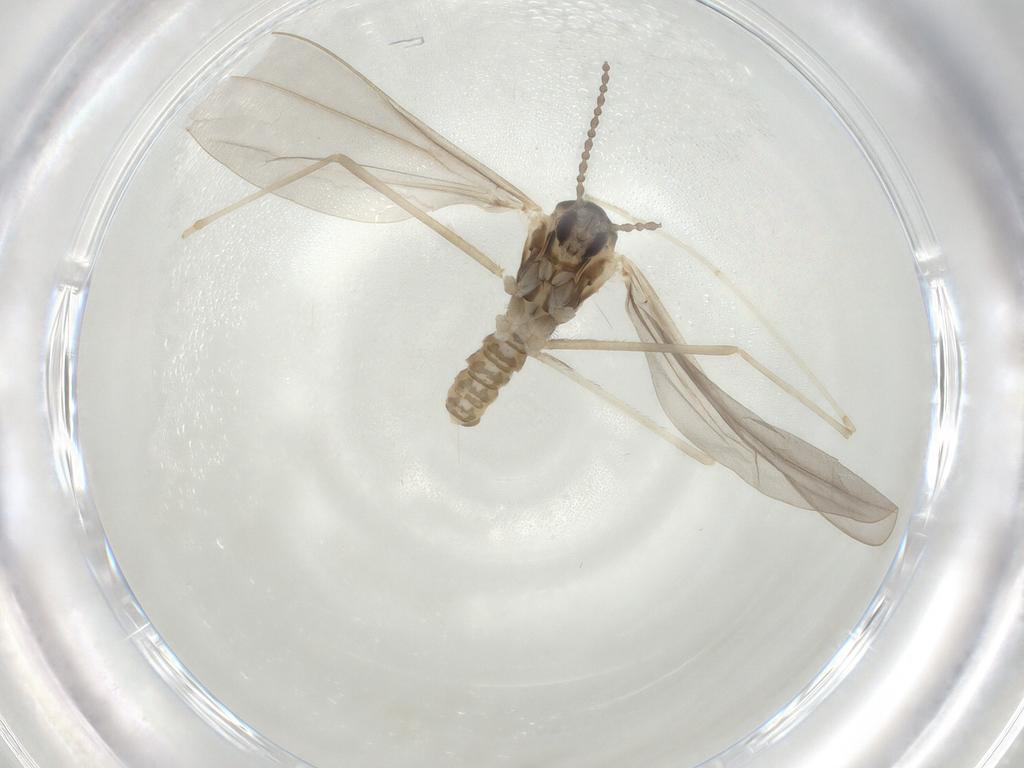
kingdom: Animalia
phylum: Arthropoda
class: Insecta
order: Diptera
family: Cecidomyiidae
